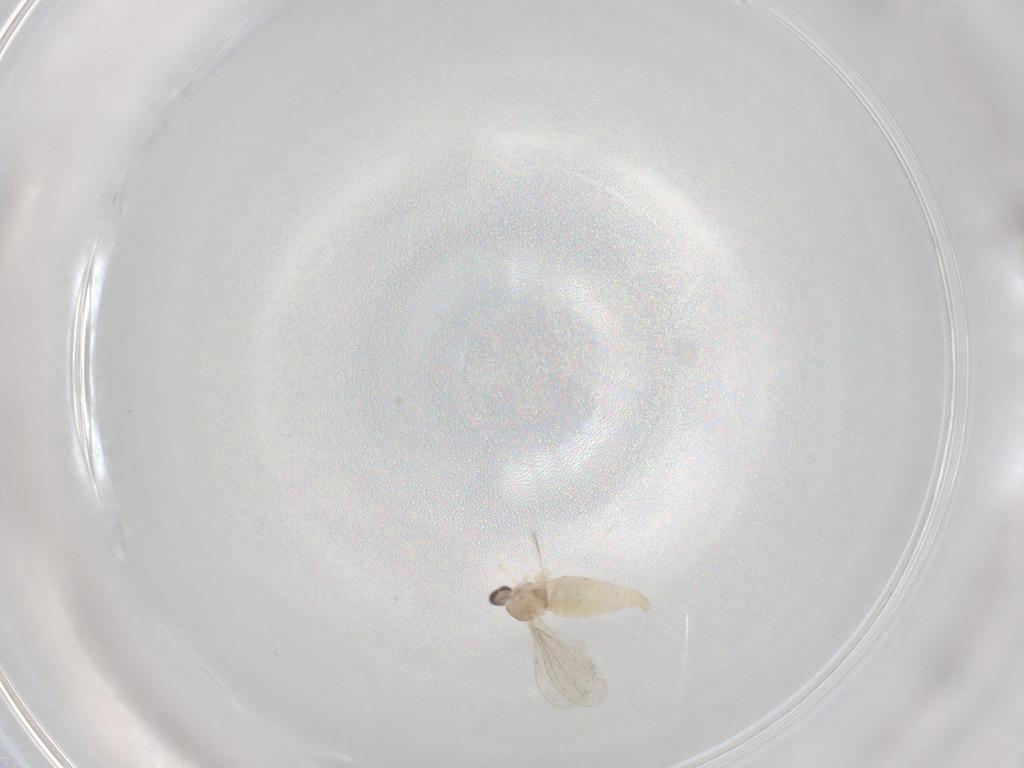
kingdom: Animalia
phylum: Arthropoda
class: Insecta
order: Diptera
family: Cecidomyiidae
